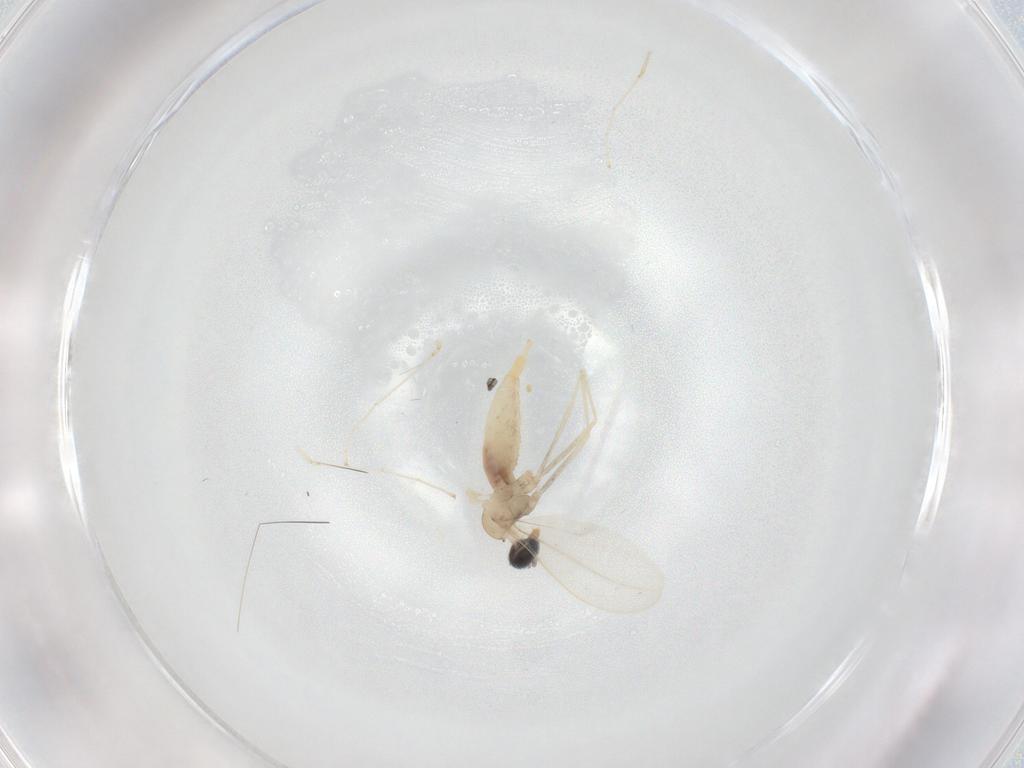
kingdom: Animalia
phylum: Arthropoda
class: Insecta
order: Diptera
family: Cecidomyiidae
